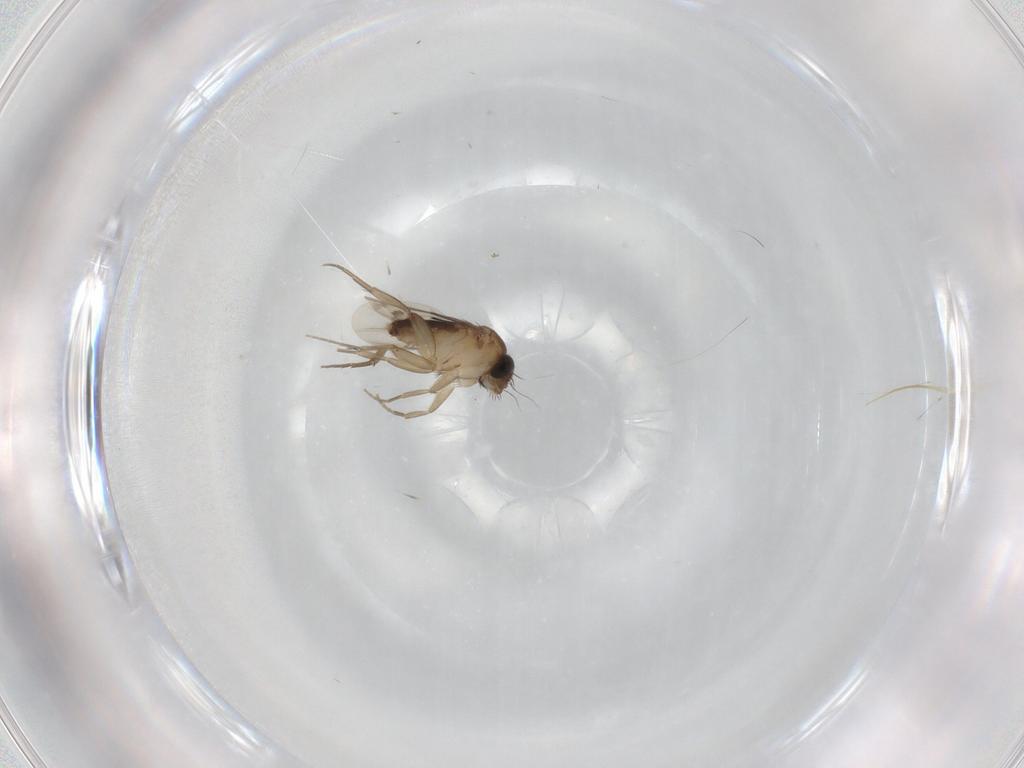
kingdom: Animalia
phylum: Arthropoda
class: Insecta
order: Diptera
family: Phoridae
